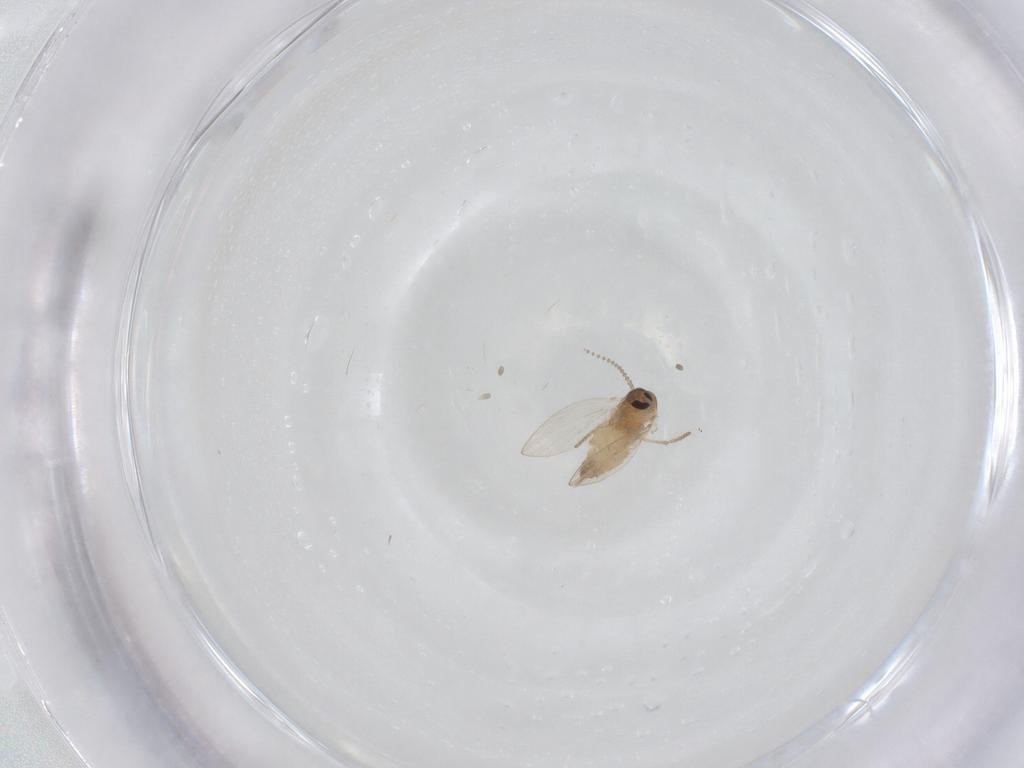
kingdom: Animalia
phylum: Arthropoda
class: Insecta
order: Diptera
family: Psychodidae
